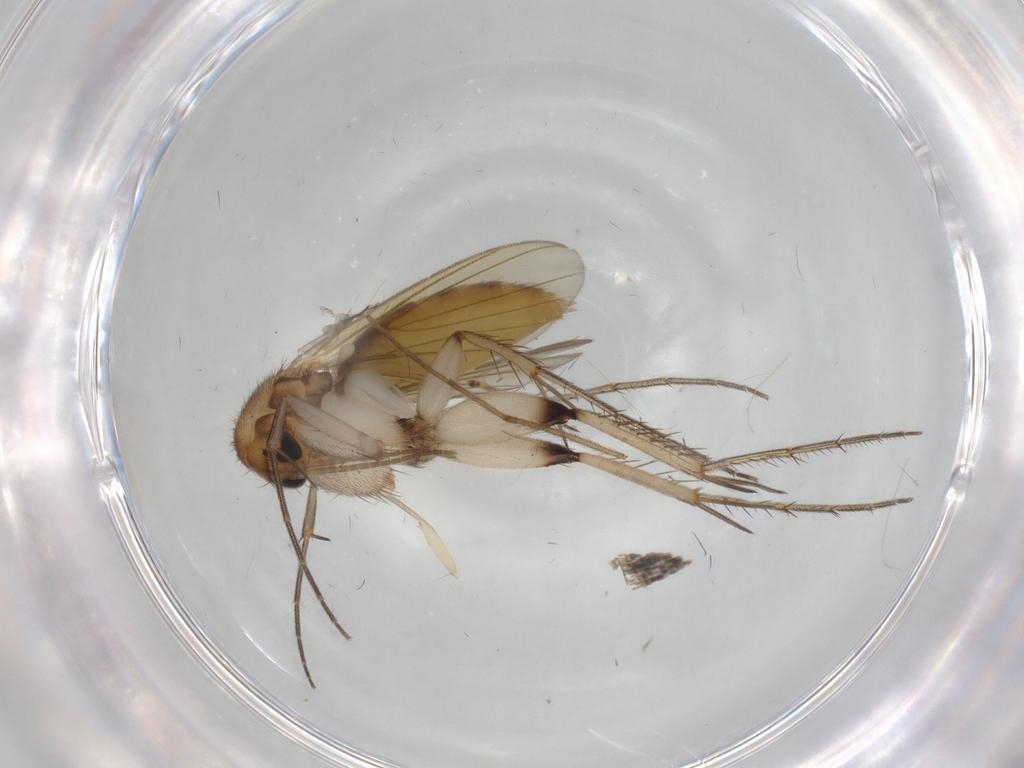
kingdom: Animalia
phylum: Arthropoda
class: Insecta
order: Diptera
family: Mycetophilidae
